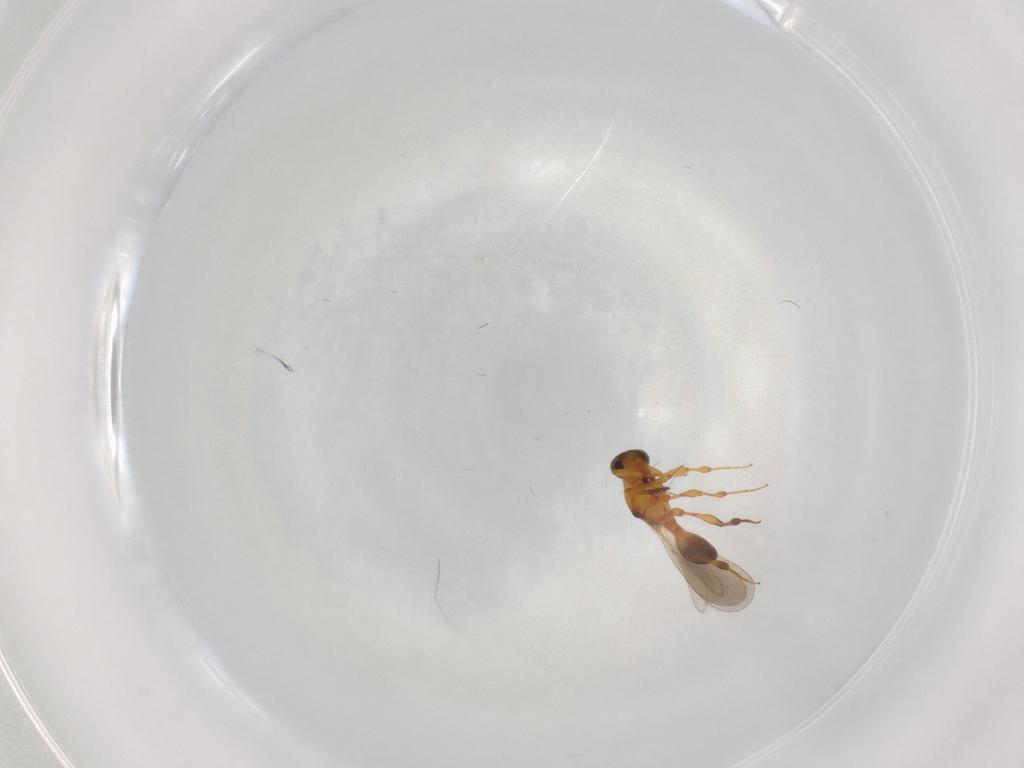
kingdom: Animalia
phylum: Arthropoda
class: Insecta
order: Hymenoptera
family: Platygastridae
